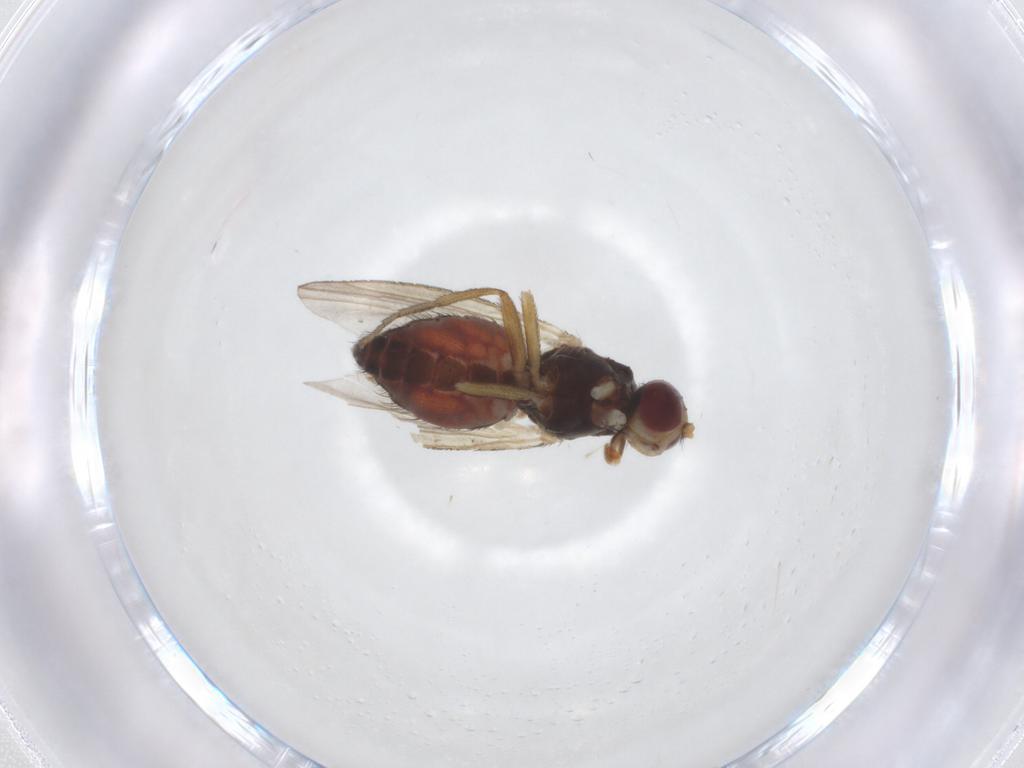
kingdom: Animalia
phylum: Arthropoda
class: Insecta
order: Diptera
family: Heleomyzidae
